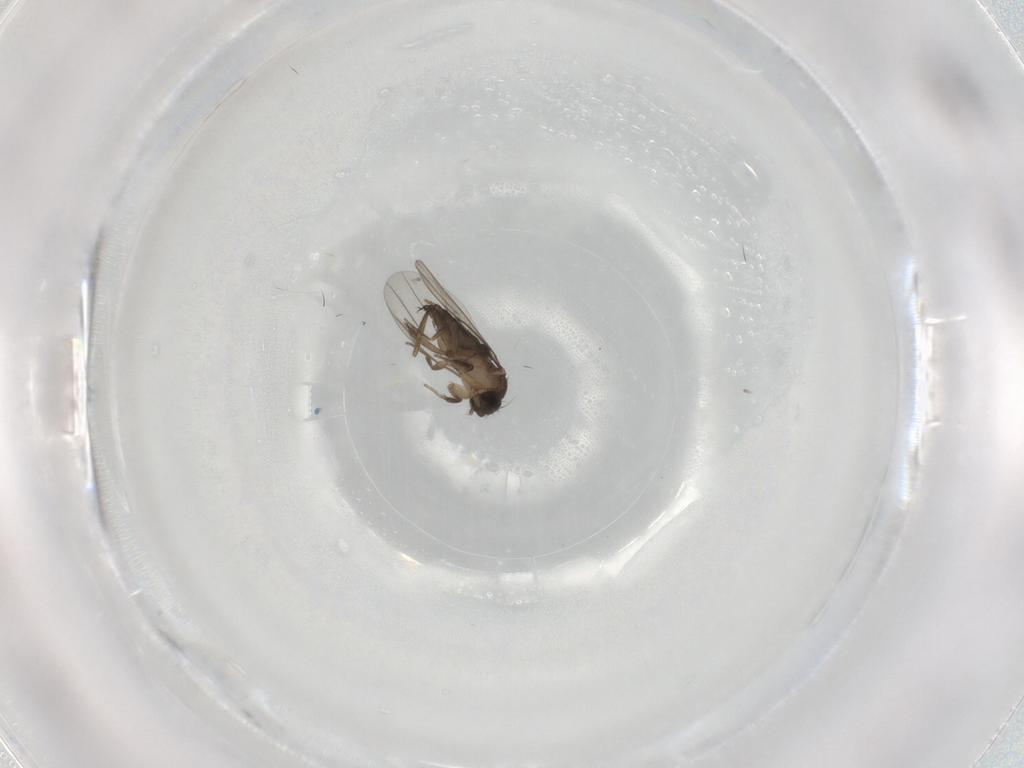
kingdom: Animalia
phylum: Arthropoda
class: Insecta
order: Diptera
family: Phoridae
